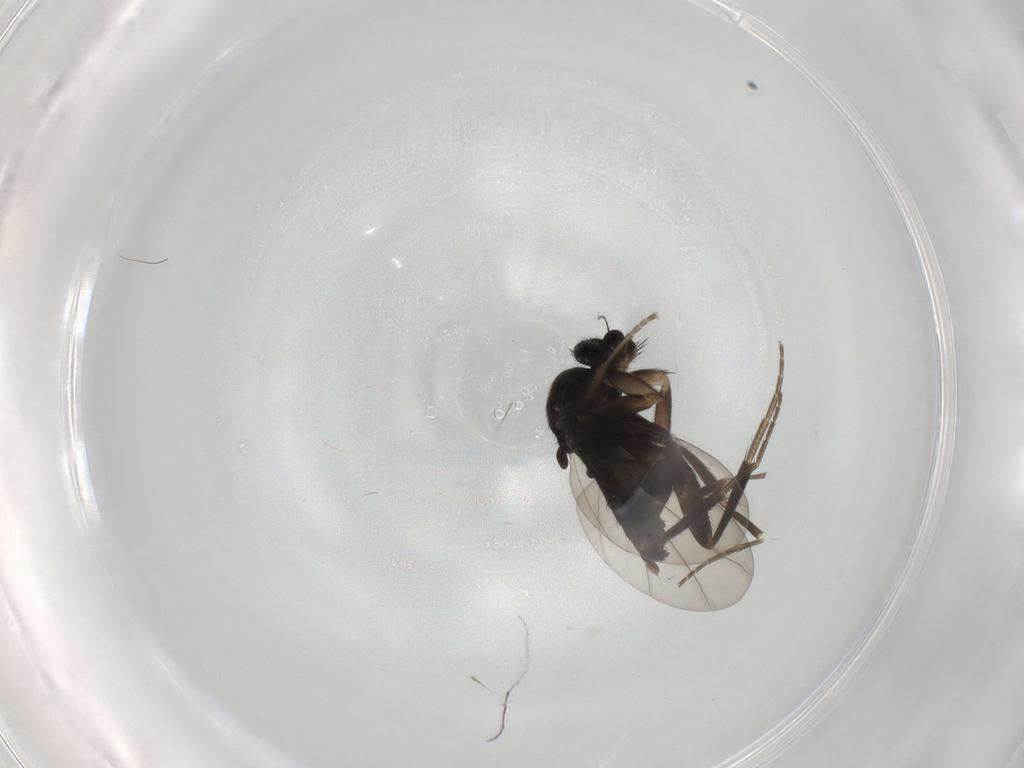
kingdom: Animalia
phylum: Arthropoda
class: Insecta
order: Diptera
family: Phoridae
